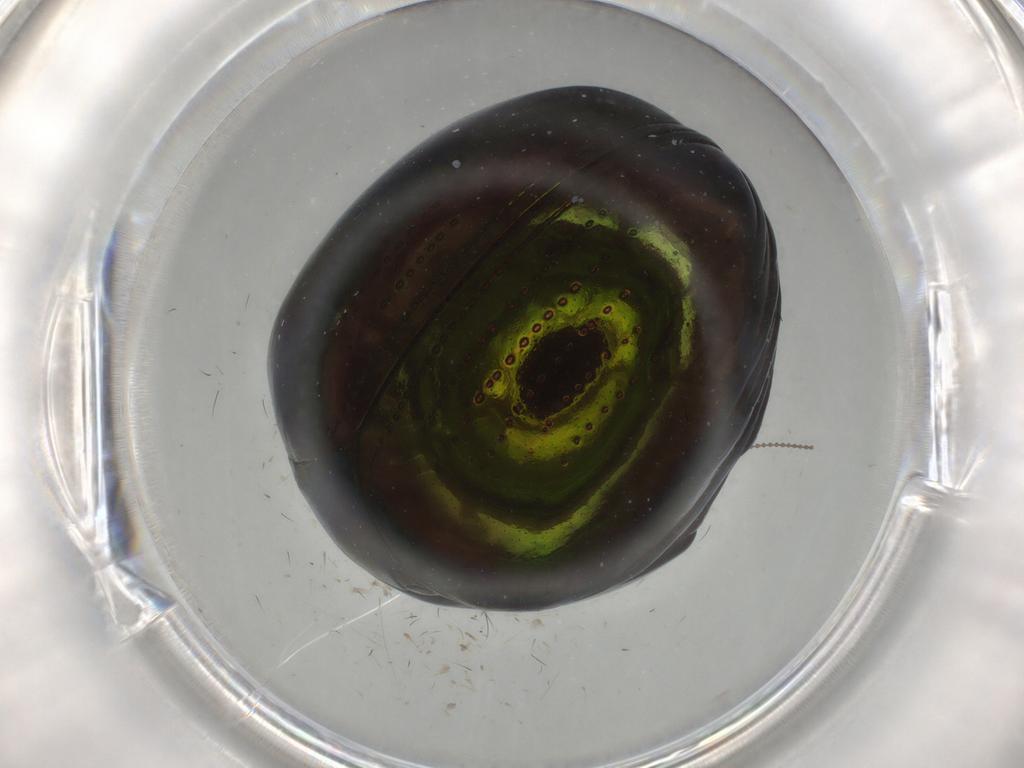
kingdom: Animalia
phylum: Arthropoda
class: Insecta
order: Coleoptera
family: Hybosoridae
